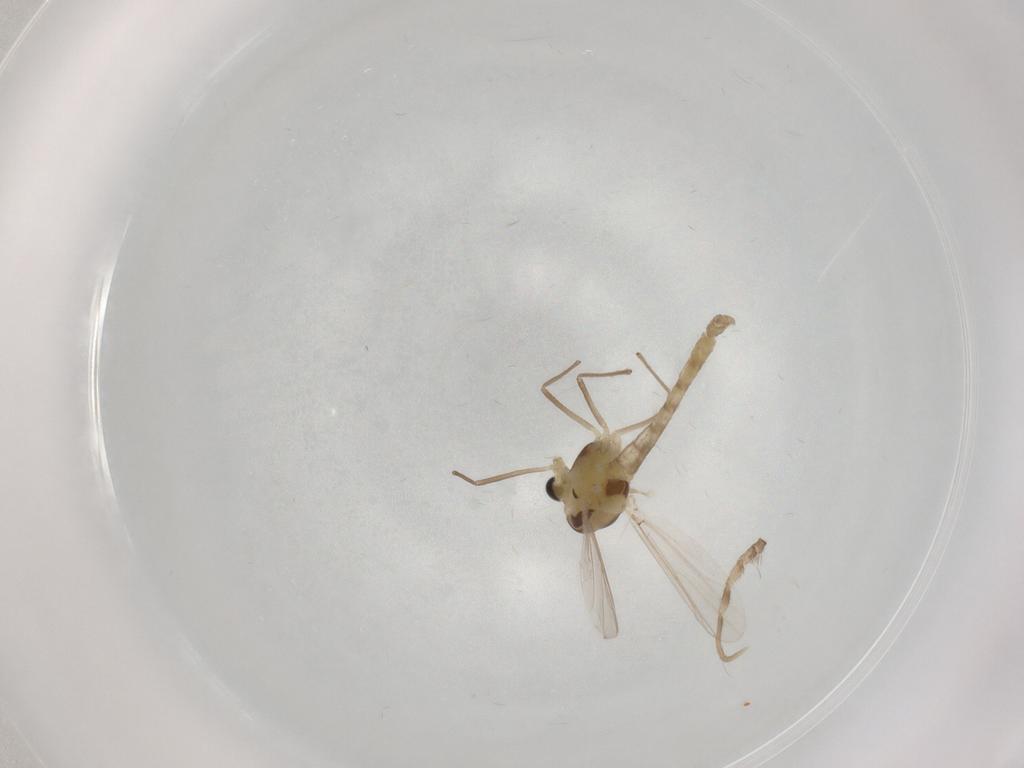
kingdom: Animalia
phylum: Arthropoda
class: Insecta
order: Diptera
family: Chironomidae
